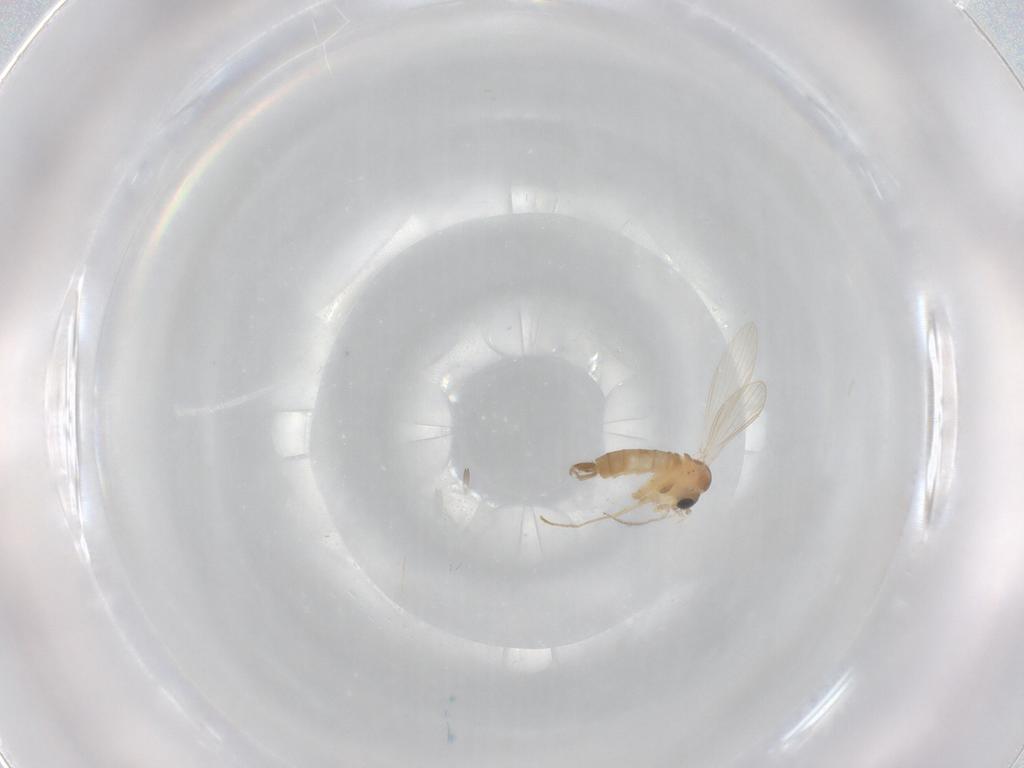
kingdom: Animalia
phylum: Arthropoda
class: Insecta
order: Diptera
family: Psychodidae
